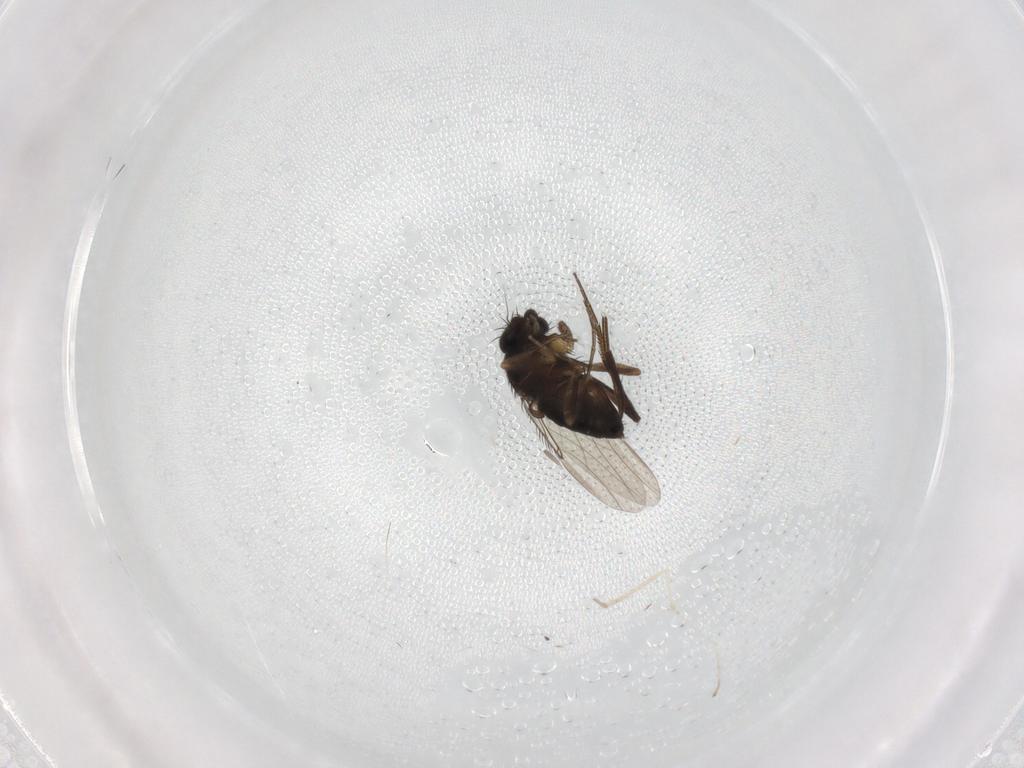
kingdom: Animalia
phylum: Arthropoda
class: Insecta
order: Diptera
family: Phoridae
